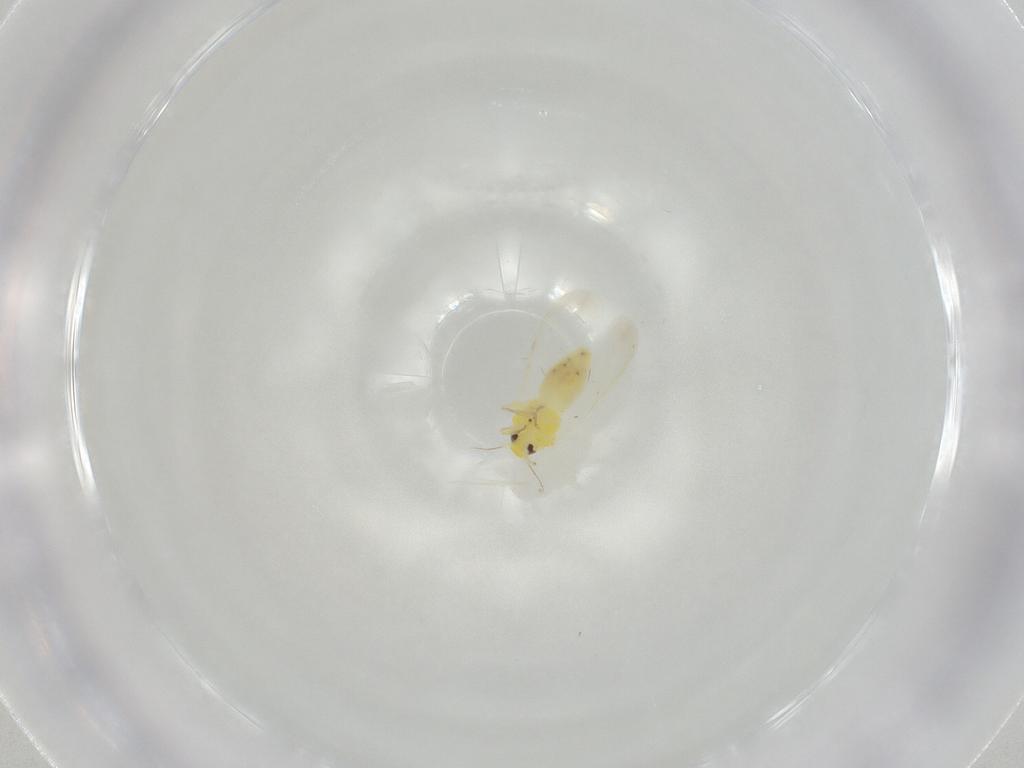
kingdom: Animalia
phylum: Arthropoda
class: Insecta
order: Hemiptera
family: Aleyrodidae
